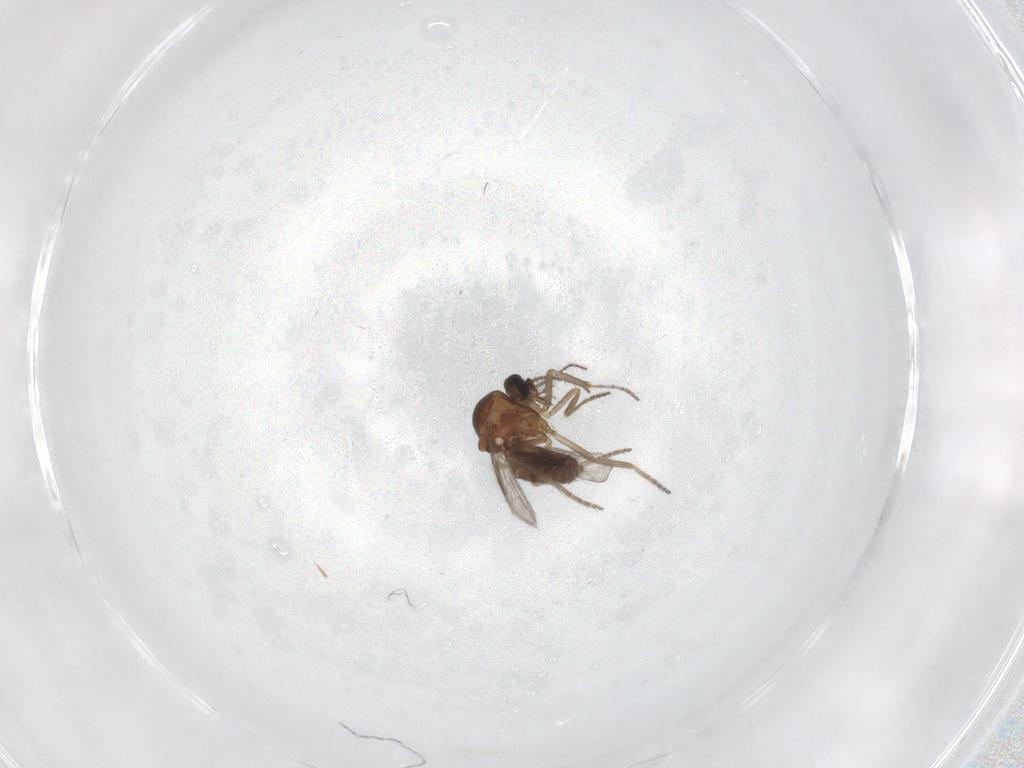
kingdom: Animalia
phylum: Arthropoda
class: Insecta
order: Diptera
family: Ceratopogonidae
